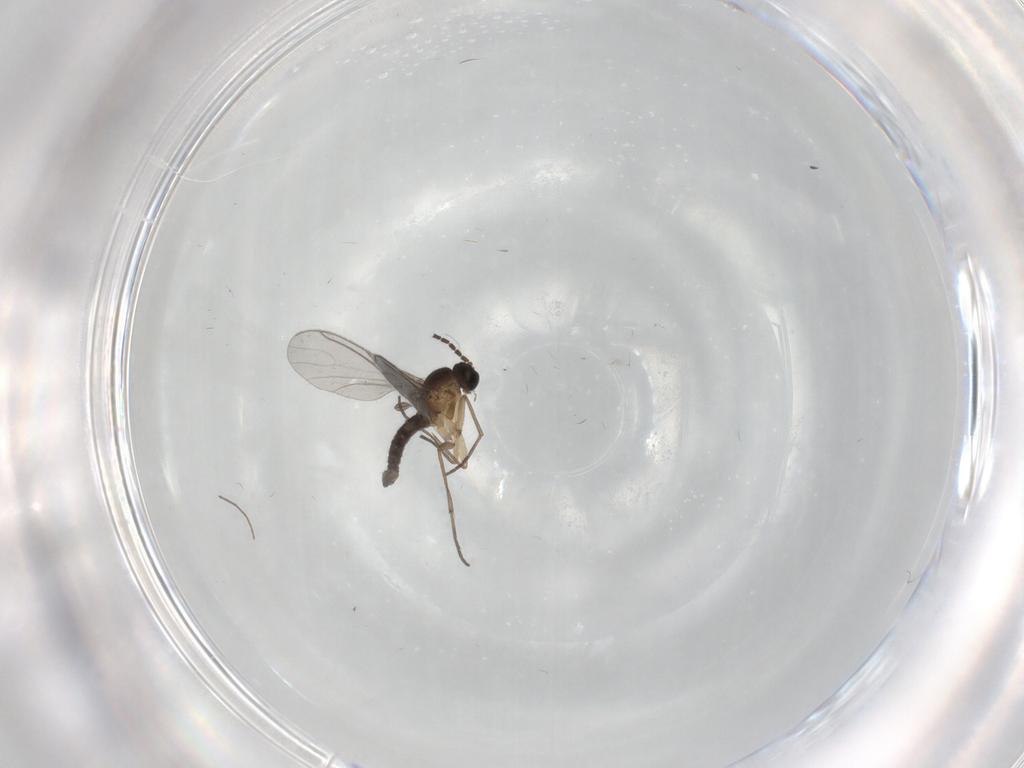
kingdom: Animalia
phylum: Arthropoda
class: Insecta
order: Diptera
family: Sciaridae
